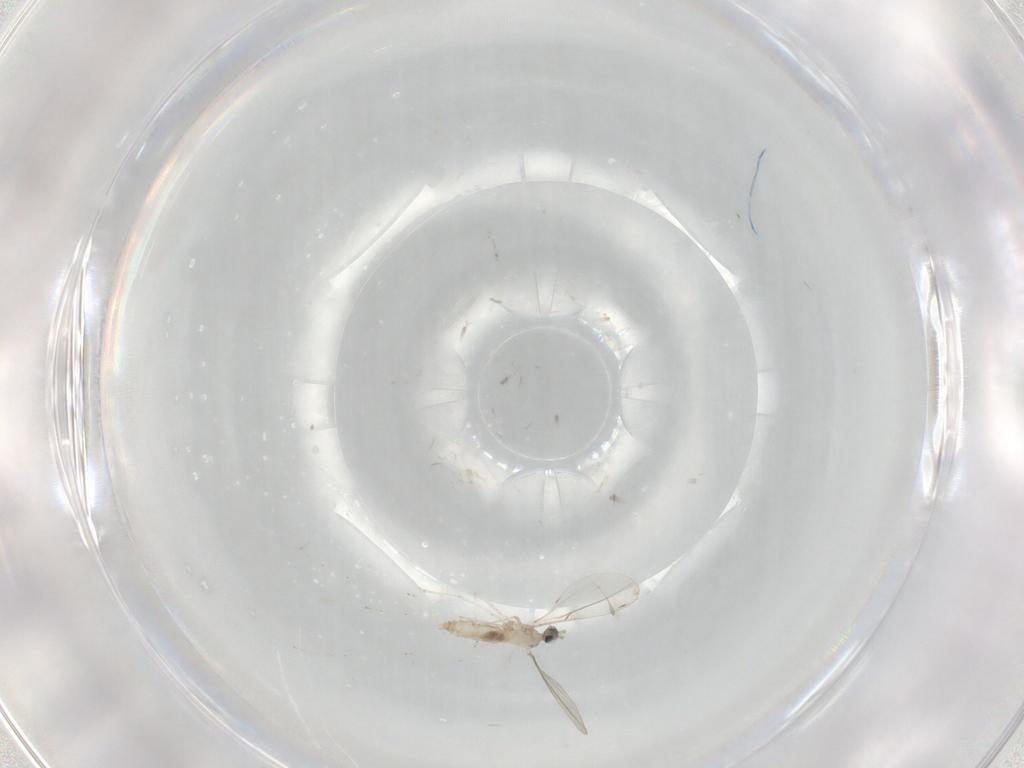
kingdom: Animalia
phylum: Arthropoda
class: Insecta
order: Diptera
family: Cecidomyiidae
